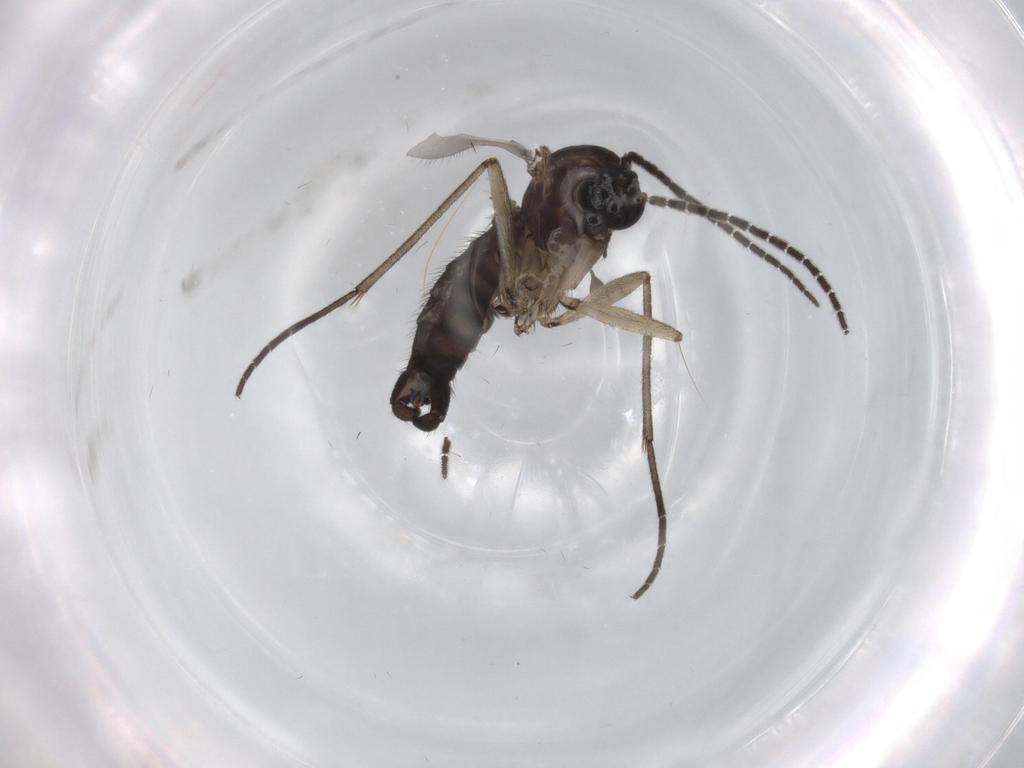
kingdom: Animalia
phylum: Arthropoda
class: Insecta
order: Diptera
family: Sciaridae
